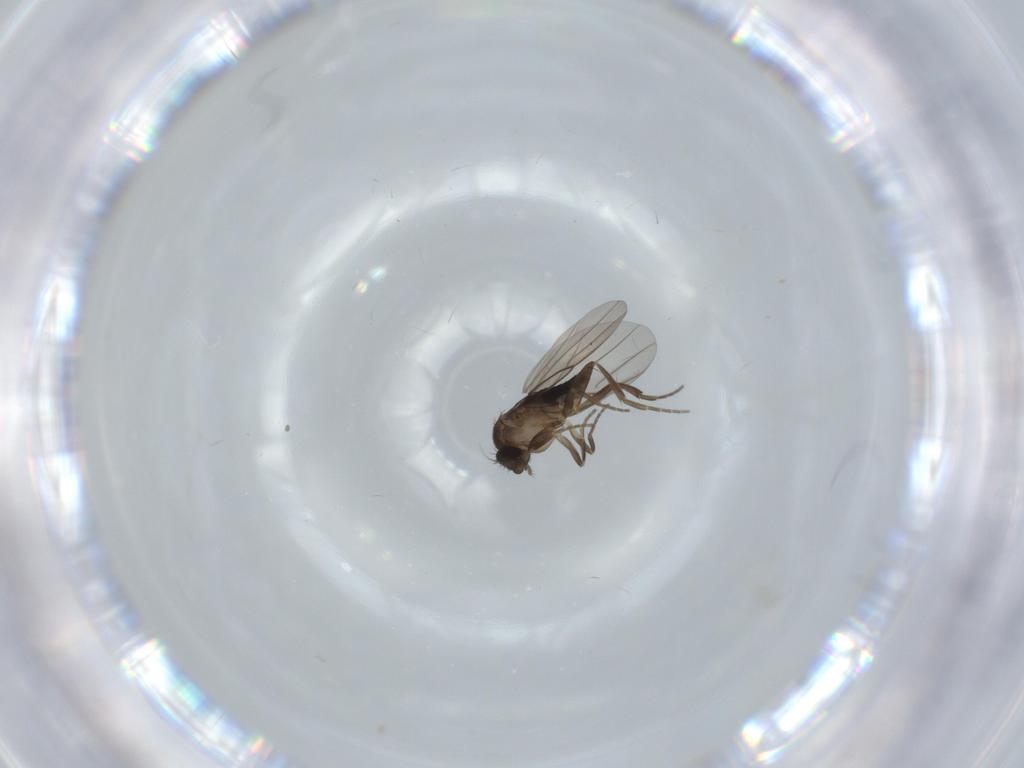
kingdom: Animalia
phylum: Arthropoda
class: Insecta
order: Diptera
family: Cecidomyiidae
